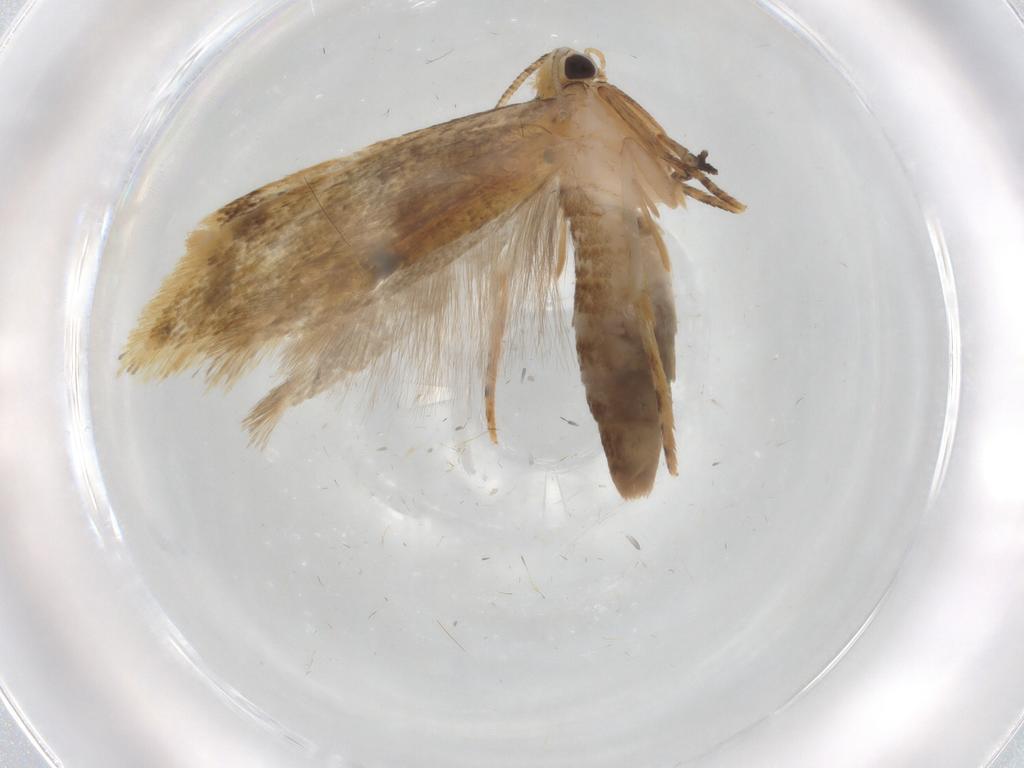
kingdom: Animalia
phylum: Arthropoda
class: Insecta
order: Lepidoptera
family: Tineidae
